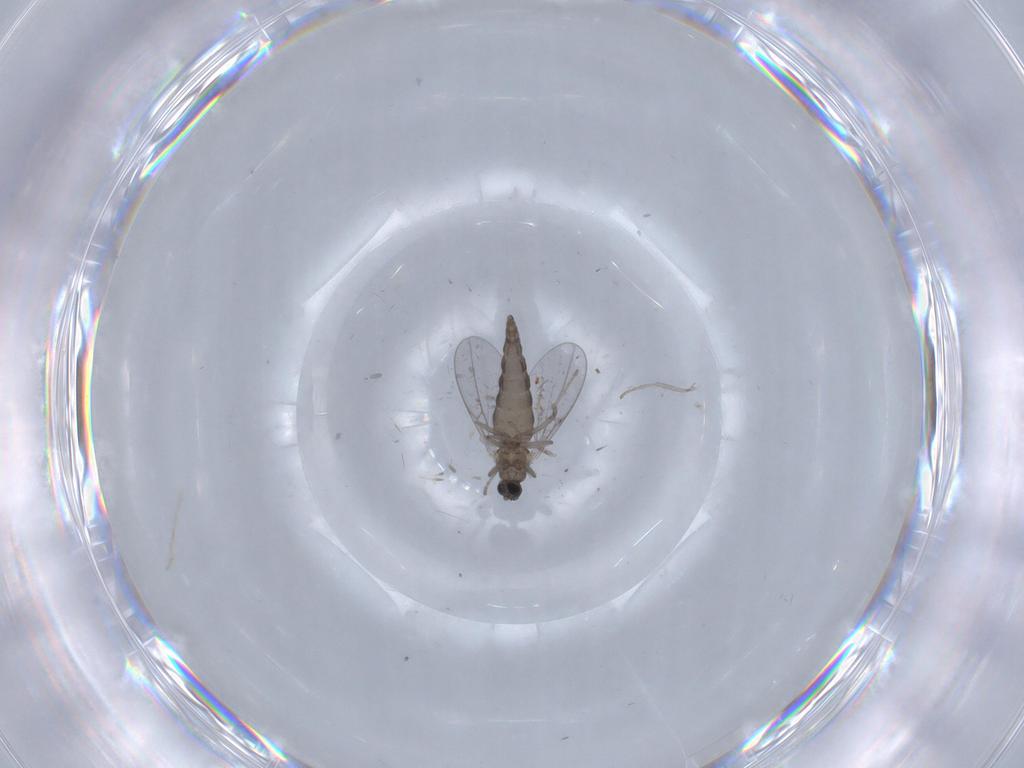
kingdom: Animalia
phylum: Arthropoda
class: Insecta
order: Diptera
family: Cecidomyiidae
